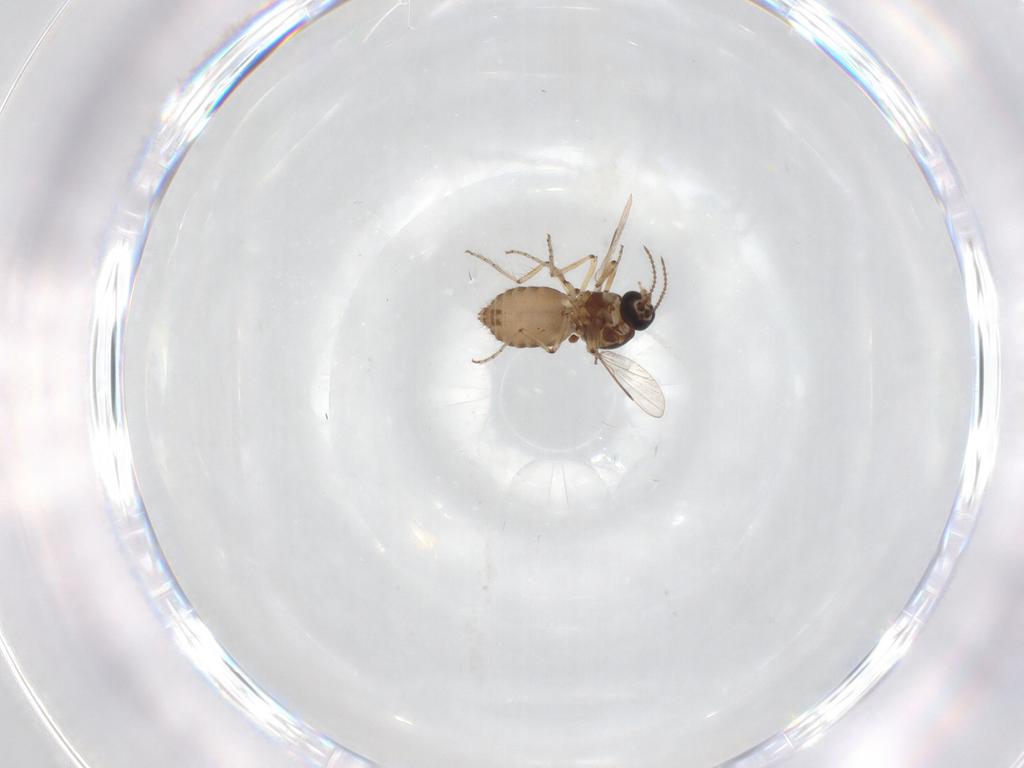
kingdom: Animalia
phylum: Arthropoda
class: Insecta
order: Diptera
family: Ceratopogonidae
